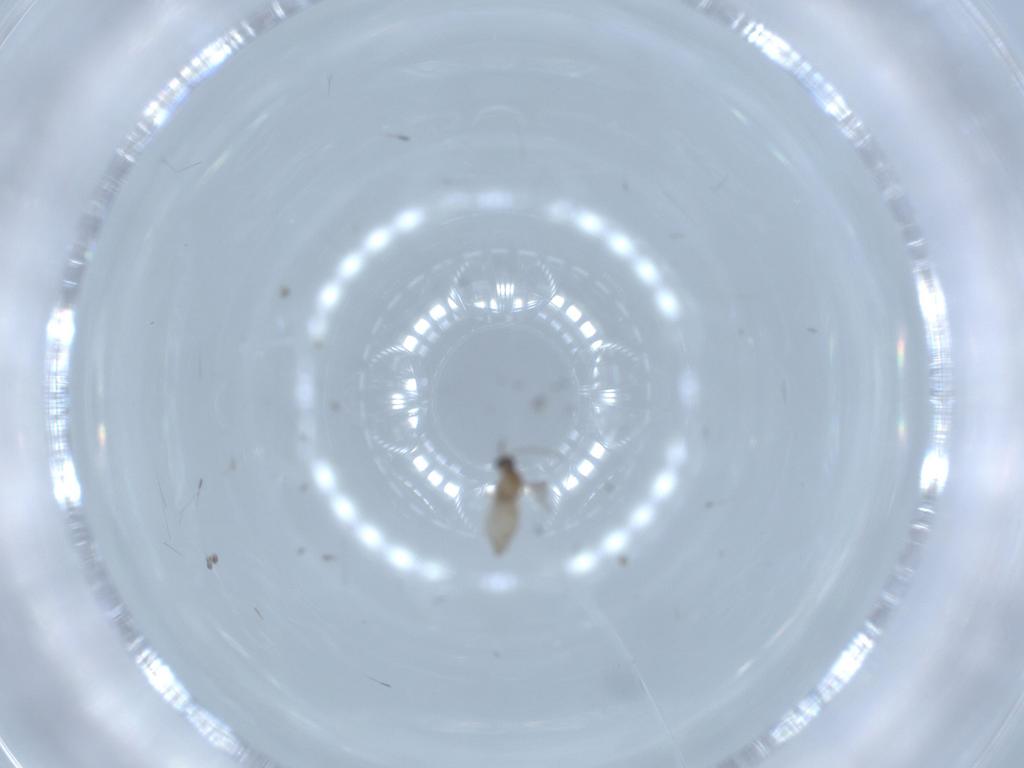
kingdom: Animalia
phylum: Arthropoda
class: Insecta
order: Diptera
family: Cecidomyiidae
